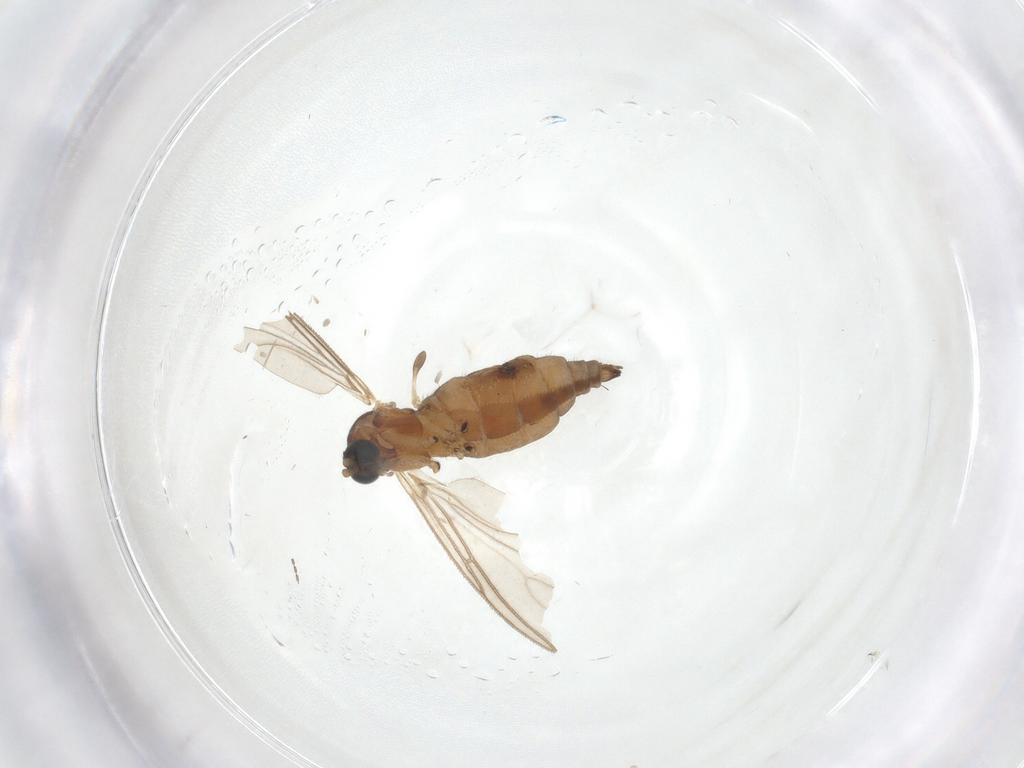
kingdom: Animalia
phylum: Arthropoda
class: Insecta
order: Diptera
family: Sciaridae
